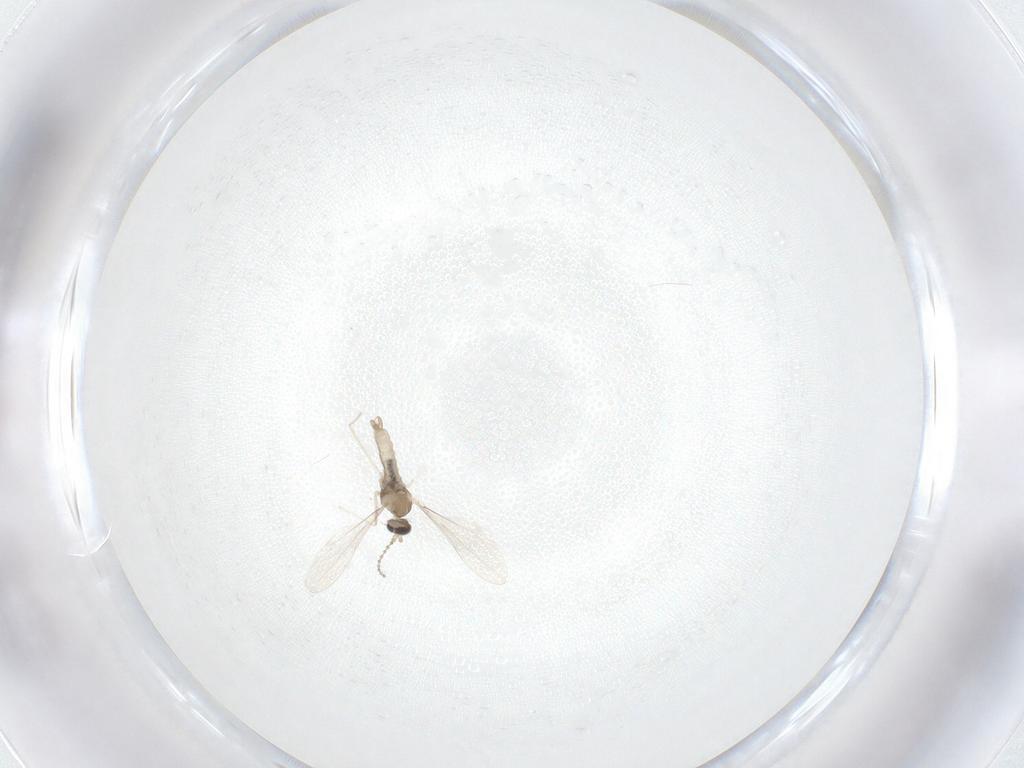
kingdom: Animalia
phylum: Arthropoda
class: Insecta
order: Diptera
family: Cecidomyiidae
